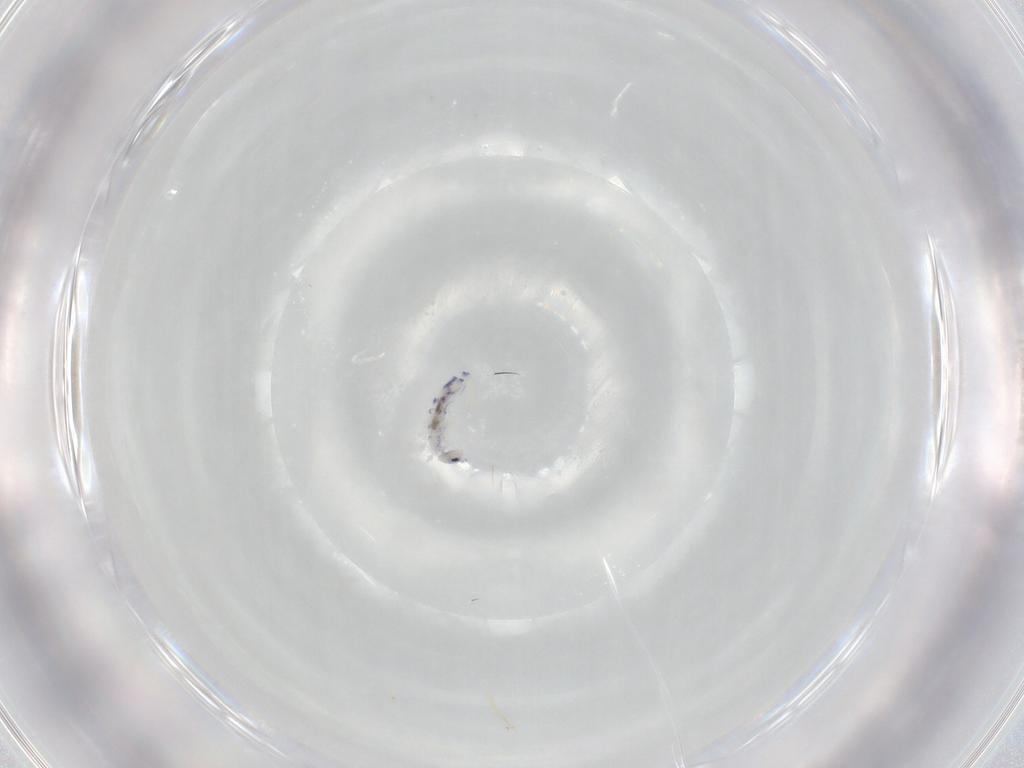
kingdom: Animalia
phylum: Arthropoda
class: Collembola
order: Entomobryomorpha
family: Entomobryidae
